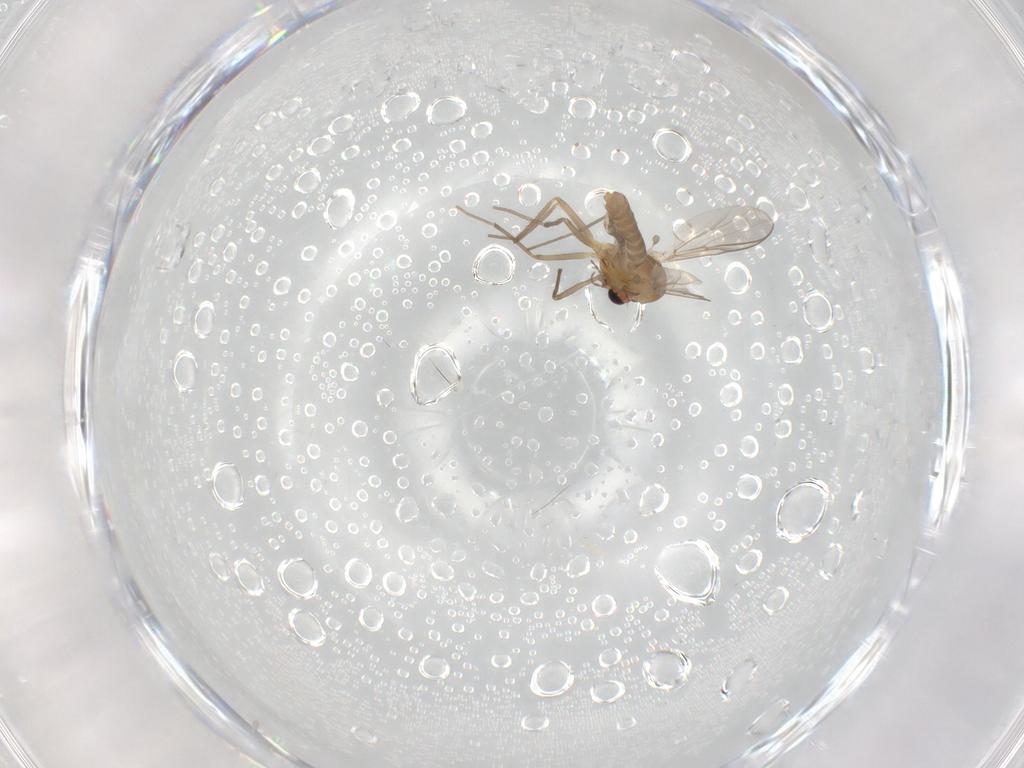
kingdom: Animalia
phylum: Arthropoda
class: Insecta
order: Diptera
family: Chironomidae
